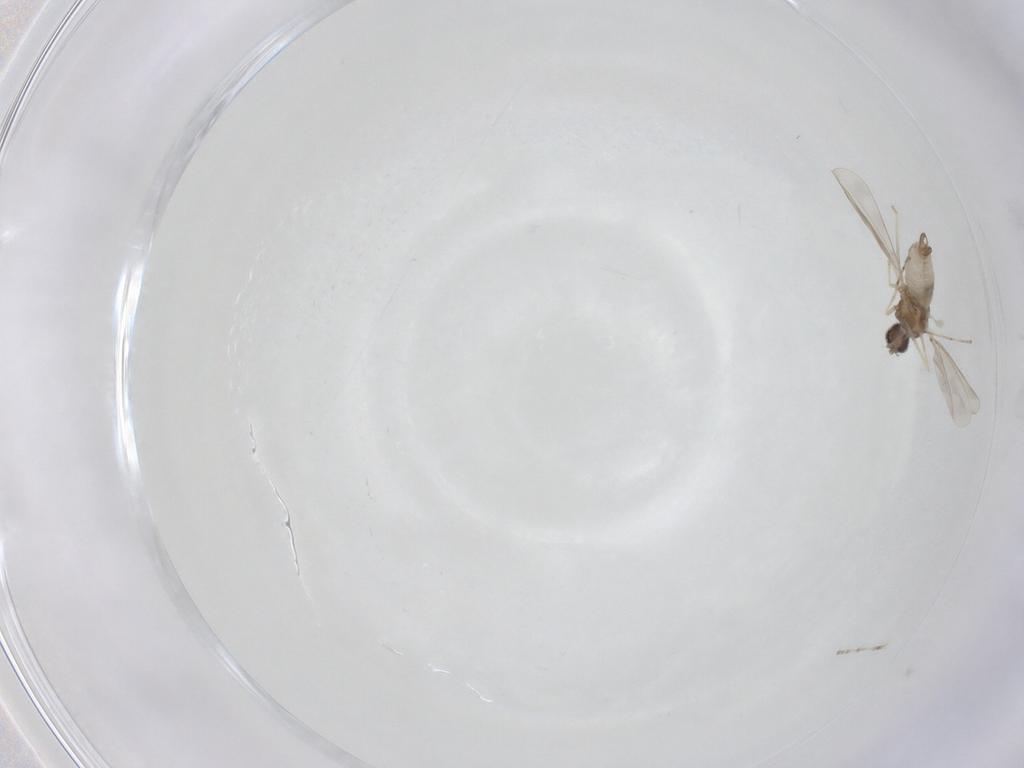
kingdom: Animalia
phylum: Arthropoda
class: Insecta
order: Diptera
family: Cecidomyiidae
